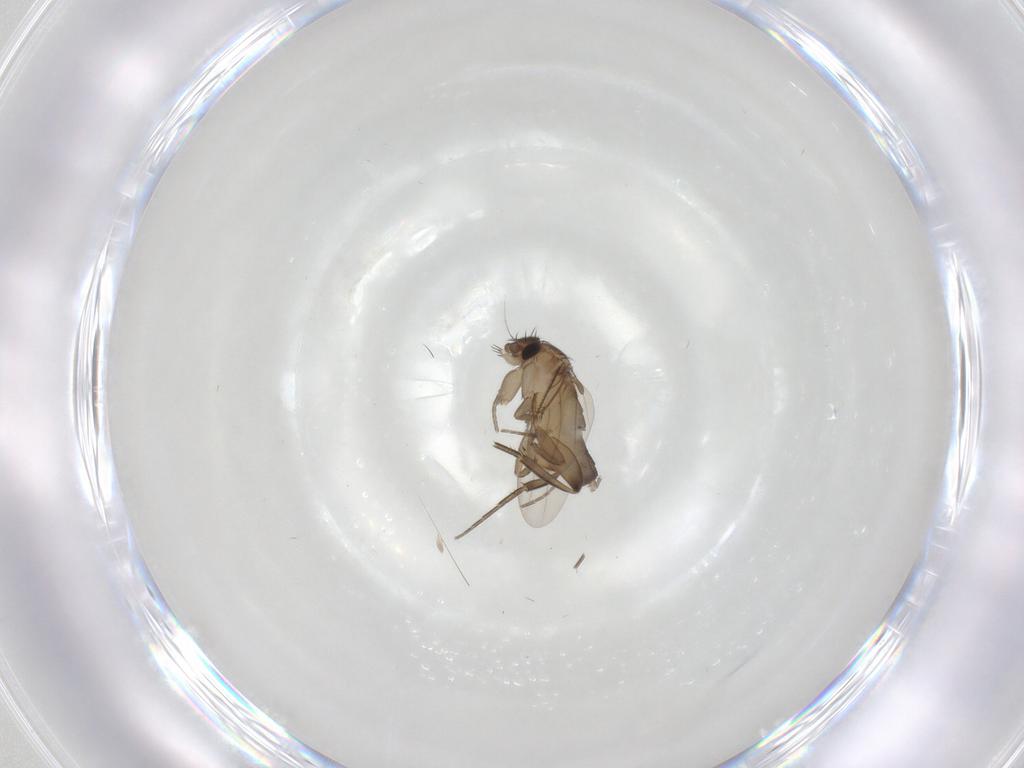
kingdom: Animalia
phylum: Arthropoda
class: Insecta
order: Diptera
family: Phoridae
